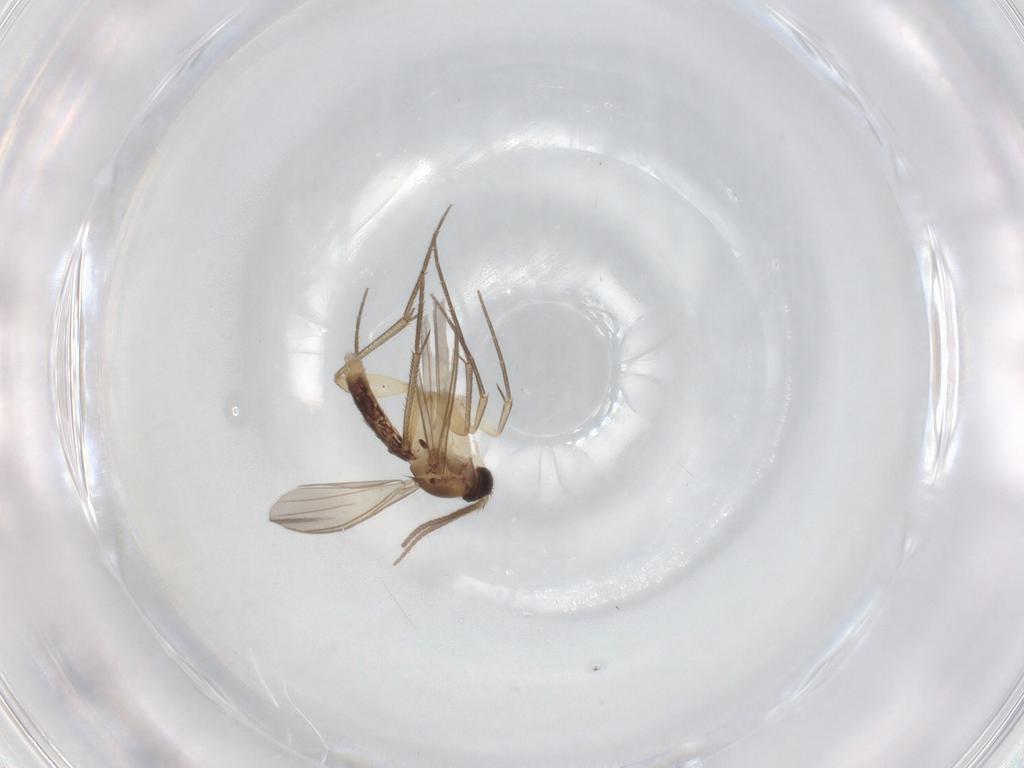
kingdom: Animalia
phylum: Arthropoda
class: Insecta
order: Diptera
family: Mycetophilidae
